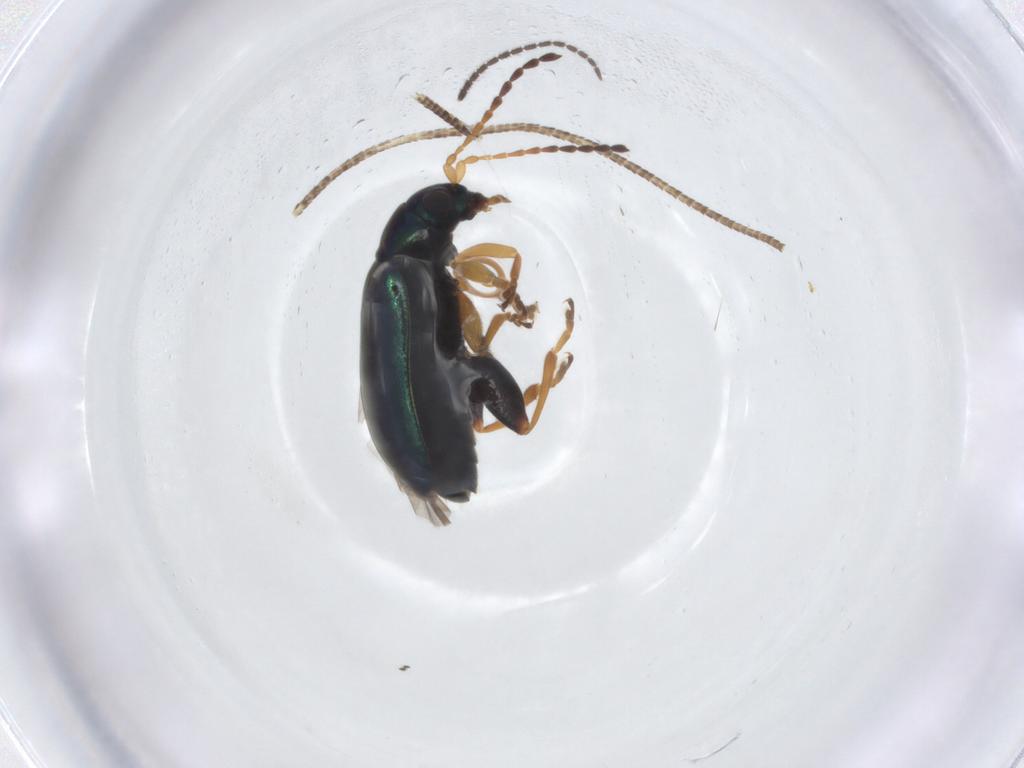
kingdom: Animalia
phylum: Arthropoda
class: Insecta
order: Coleoptera
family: Chrysomelidae
